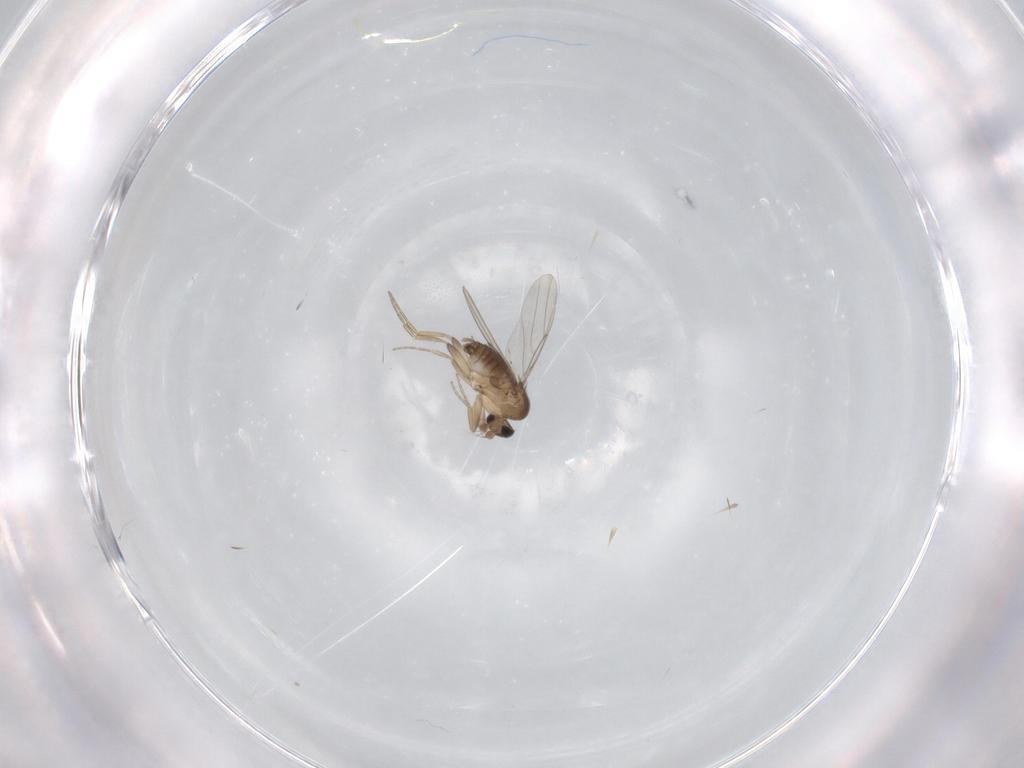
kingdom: Animalia
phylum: Arthropoda
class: Insecta
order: Diptera
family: Phoridae
